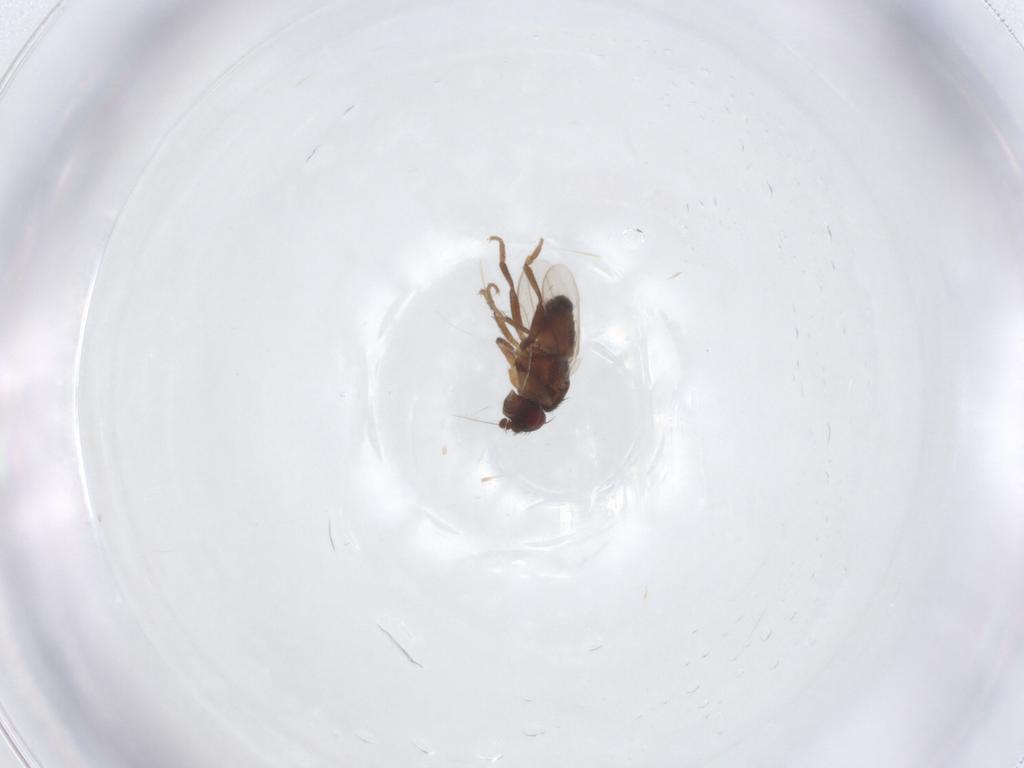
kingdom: Animalia
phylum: Arthropoda
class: Insecta
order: Diptera
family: Sphaeroceridae
